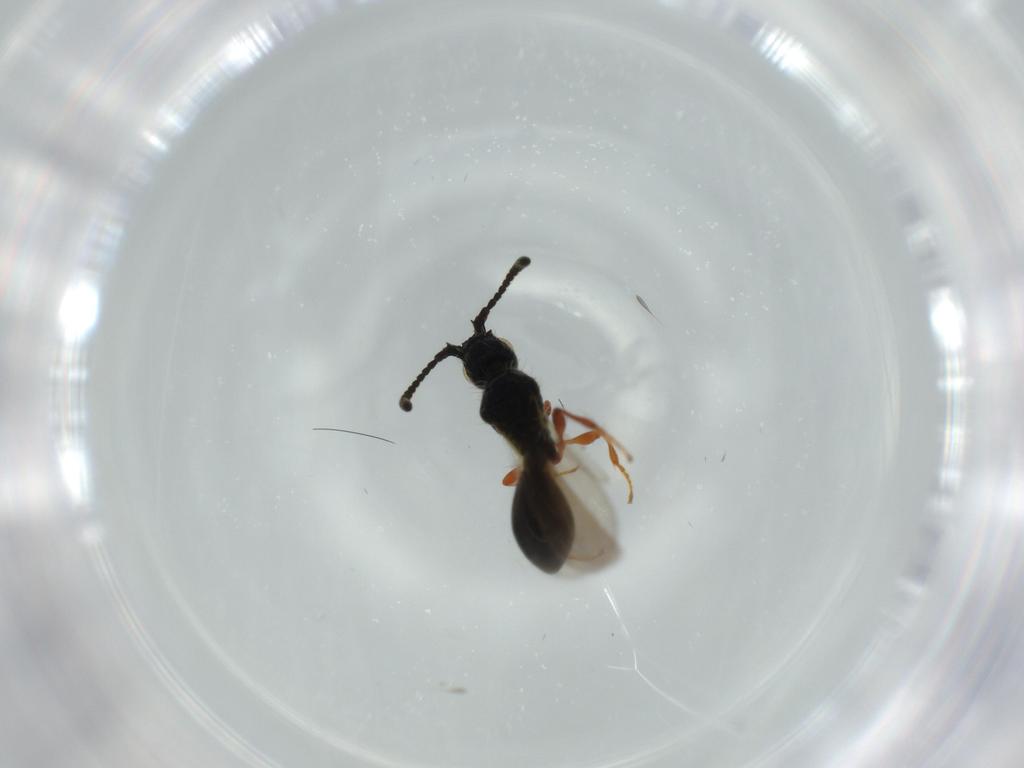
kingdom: Animalia
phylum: Arthropoda
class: Insecta
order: Hymenoptera
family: Diapriidae
